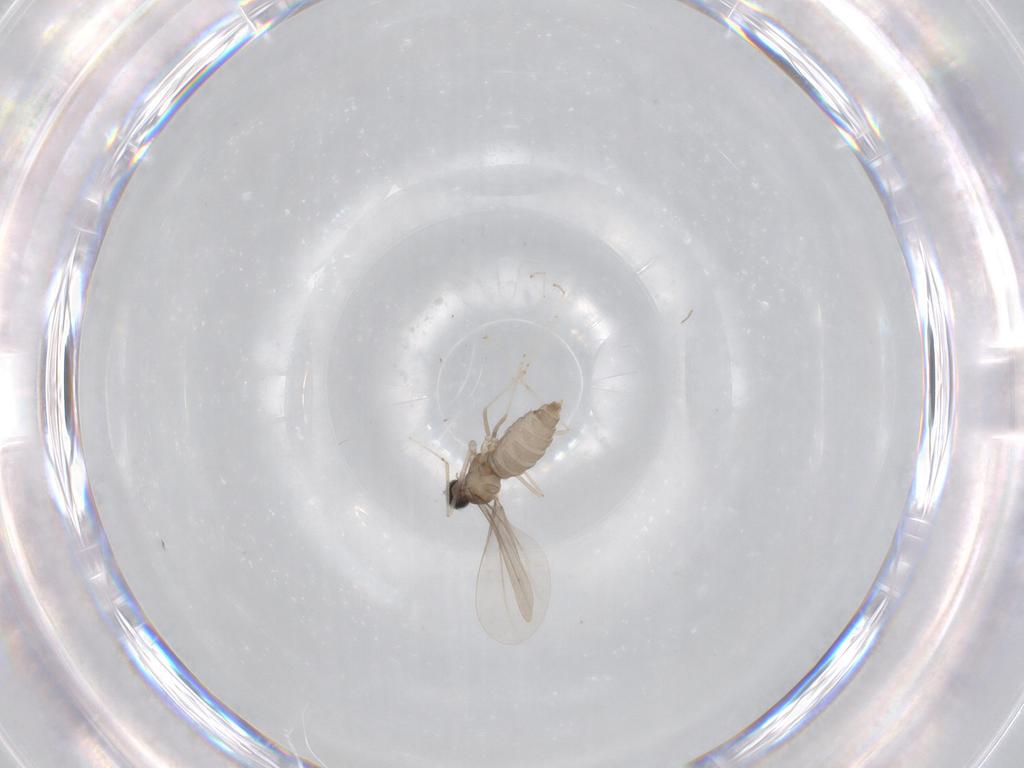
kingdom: Animalia
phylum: Arthropoda
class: Insecta
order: Diptera
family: Cecidomyiidae
